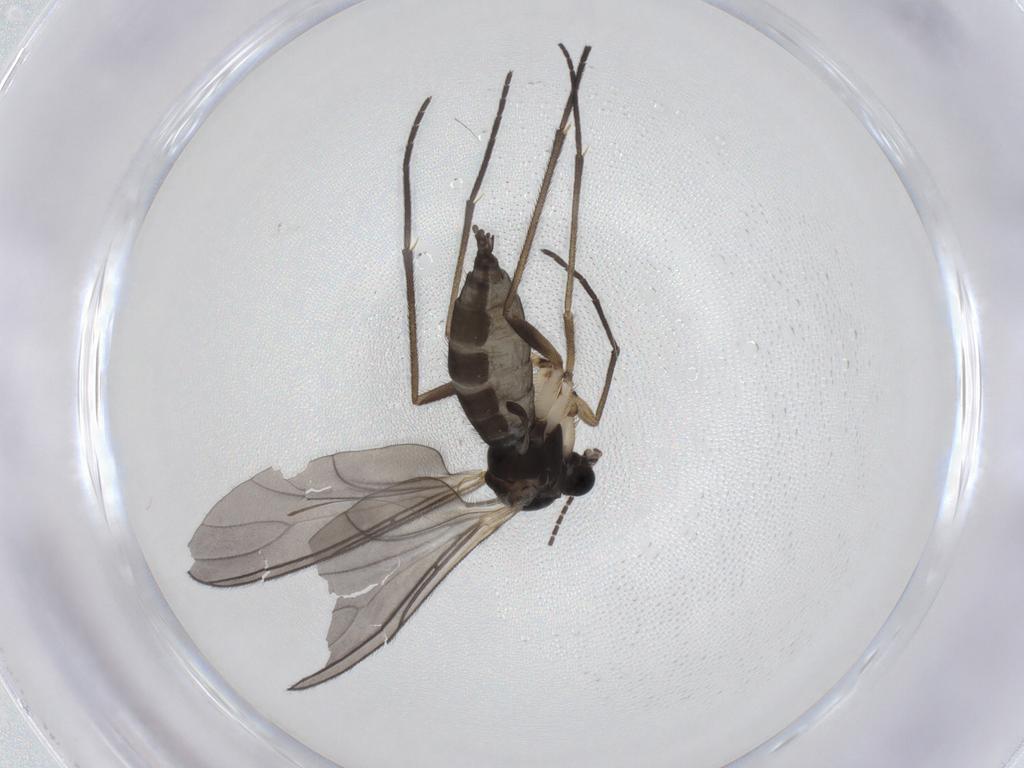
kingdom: Animalia
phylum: Arthropoda
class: Insecta
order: Diptera
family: Sciaridae
